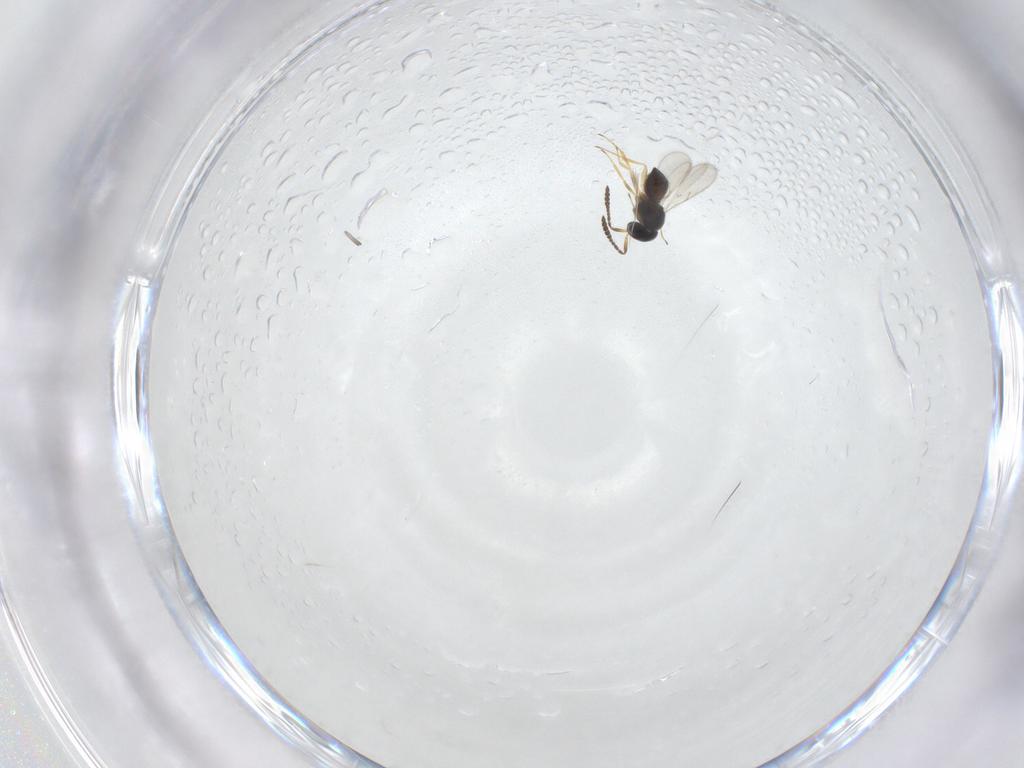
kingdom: Animalia
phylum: Arthropoda
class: Insecta
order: Hymenoptera
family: Scelionidae
